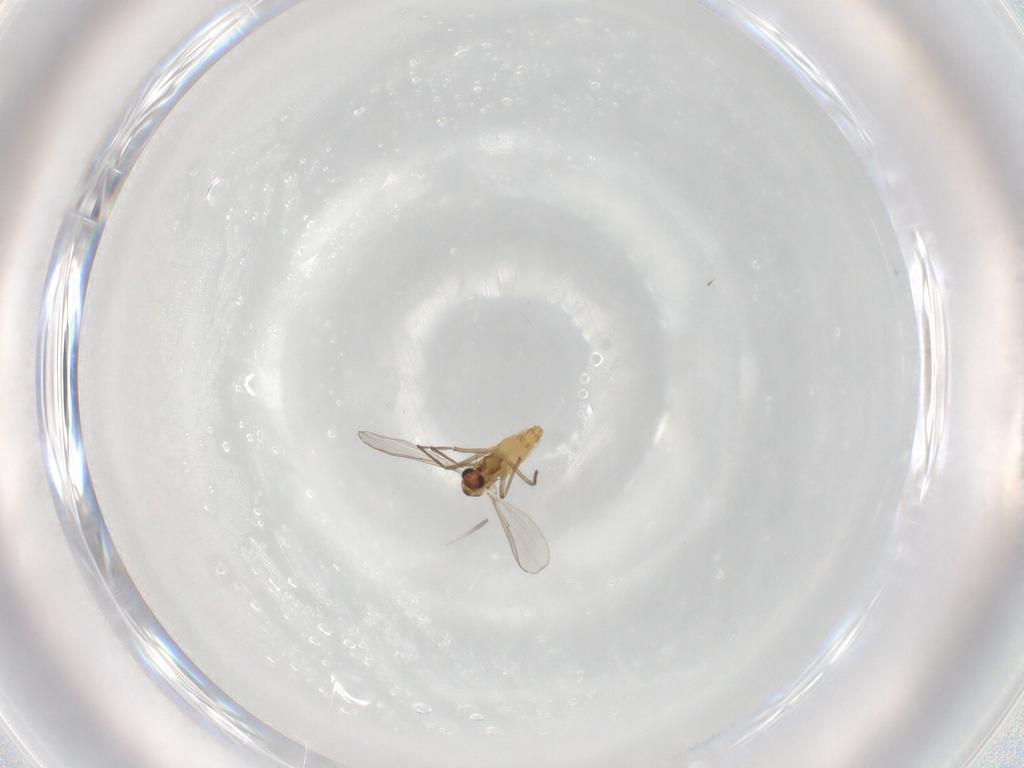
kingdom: Animalia
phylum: Arthropoda
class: Insecta
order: Diptera
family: Chironomidae
